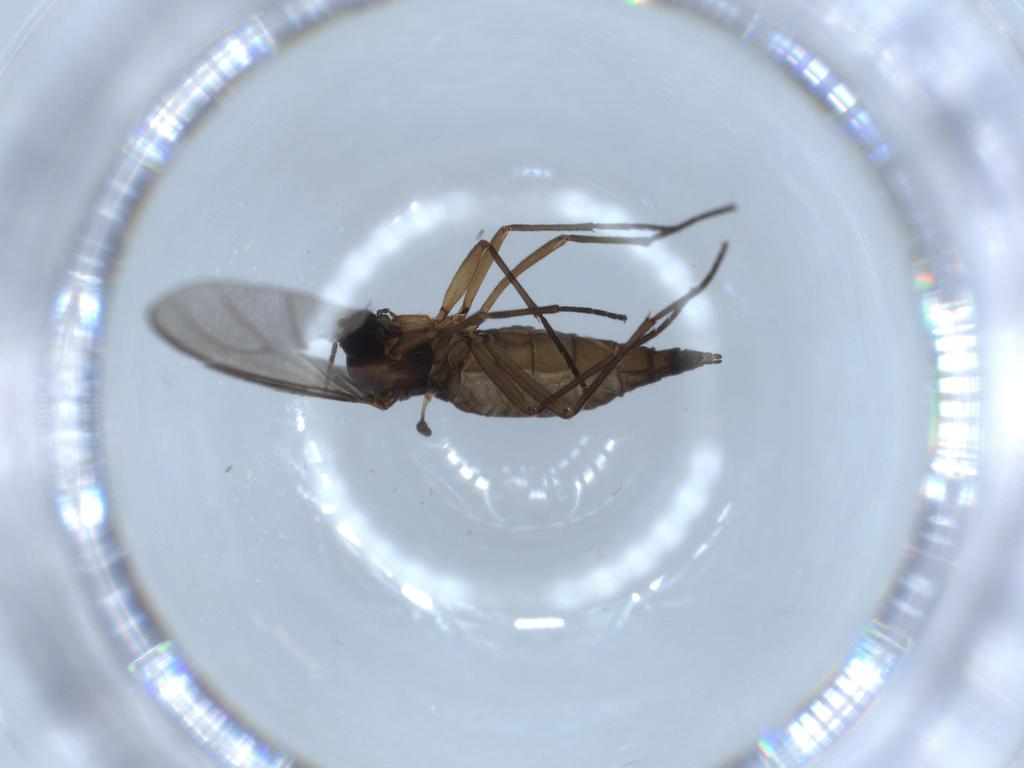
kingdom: Animalia
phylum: Arthropoda
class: Insecta
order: Diptera
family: Sciaridae
